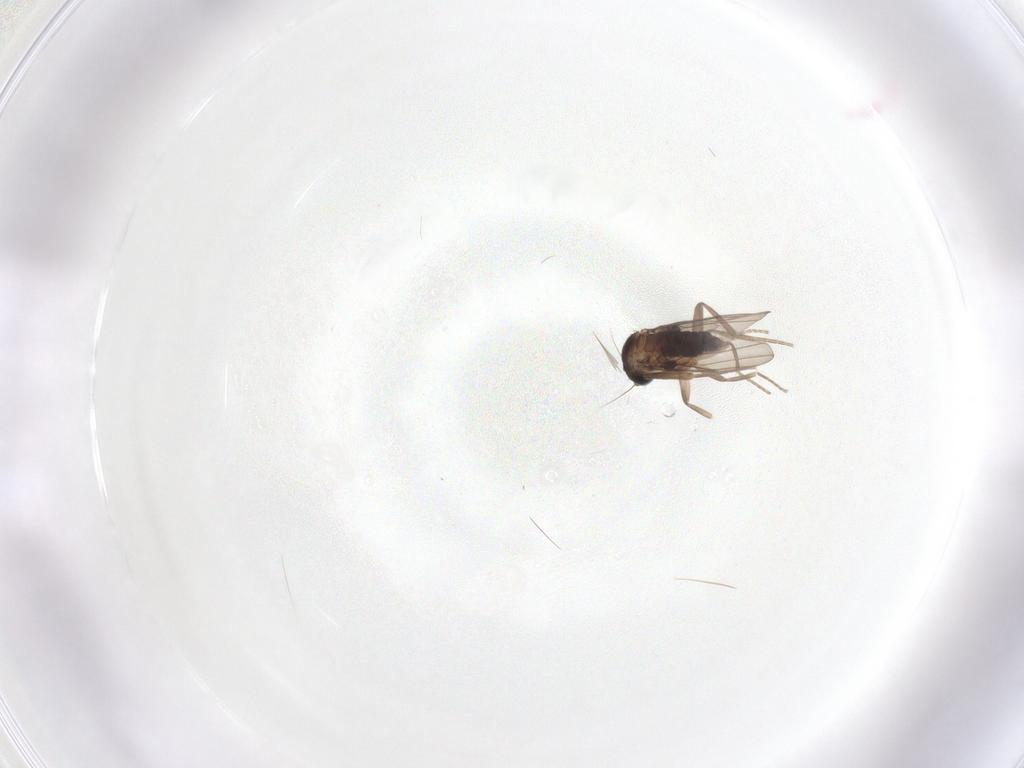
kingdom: Animalia
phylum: Arthropoda
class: Insecta
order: Diptera
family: Phoridae
